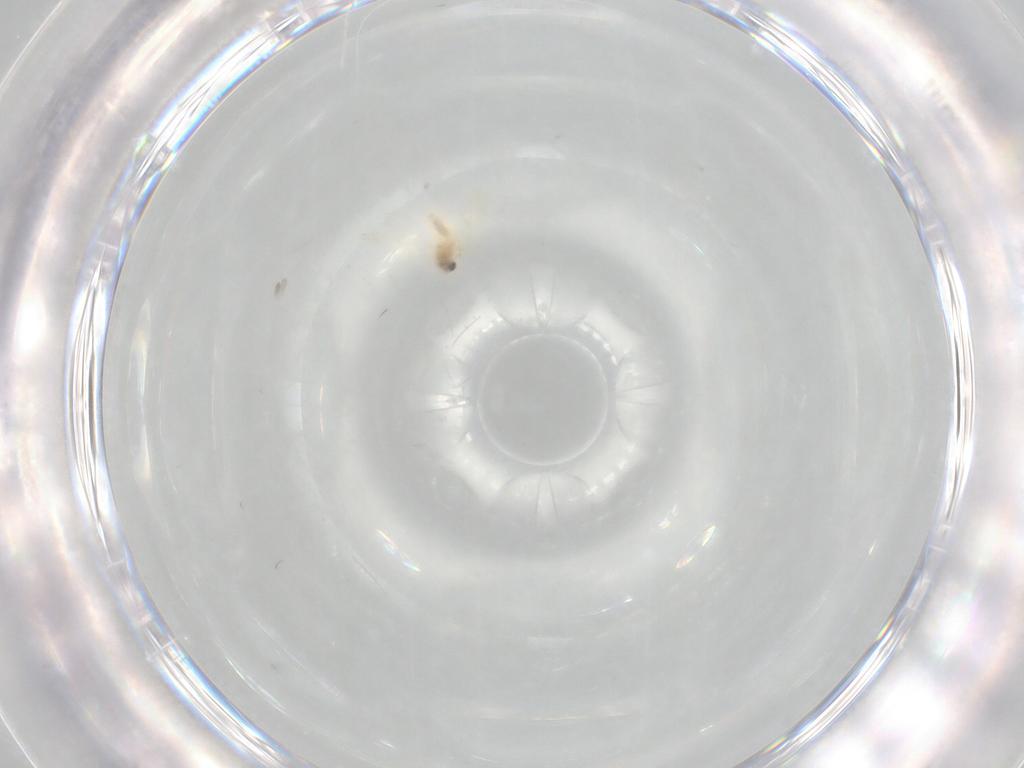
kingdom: Animalia
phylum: Arthropoda
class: Insecta
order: Hemiptera
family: Aleyrodidae
